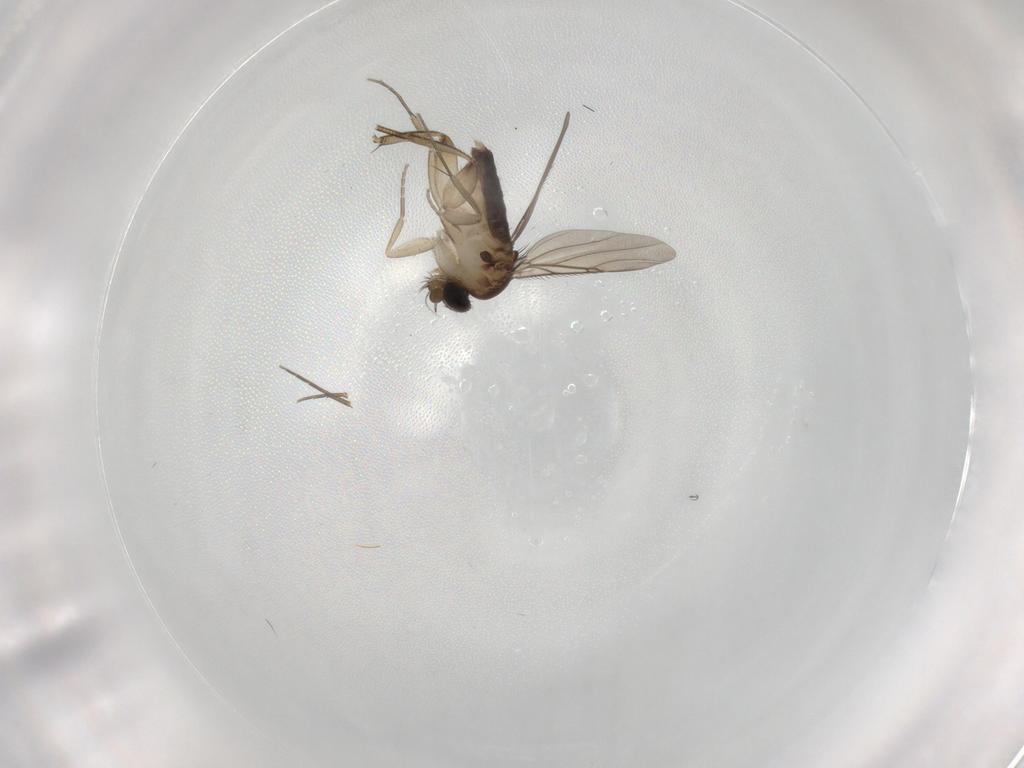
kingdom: Animalia
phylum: Arthropoda
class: Insecta
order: Diptera
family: Phoridae
